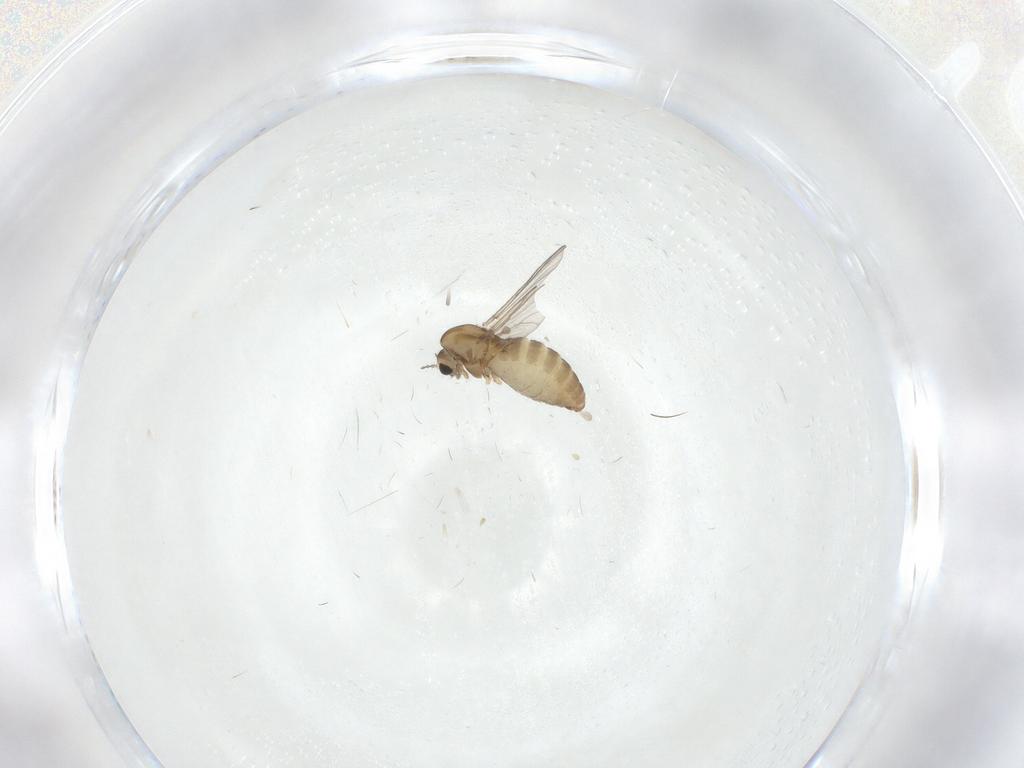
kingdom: Animalia
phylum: Arthropoda
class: Insecta
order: Diptera
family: Chironomidae
